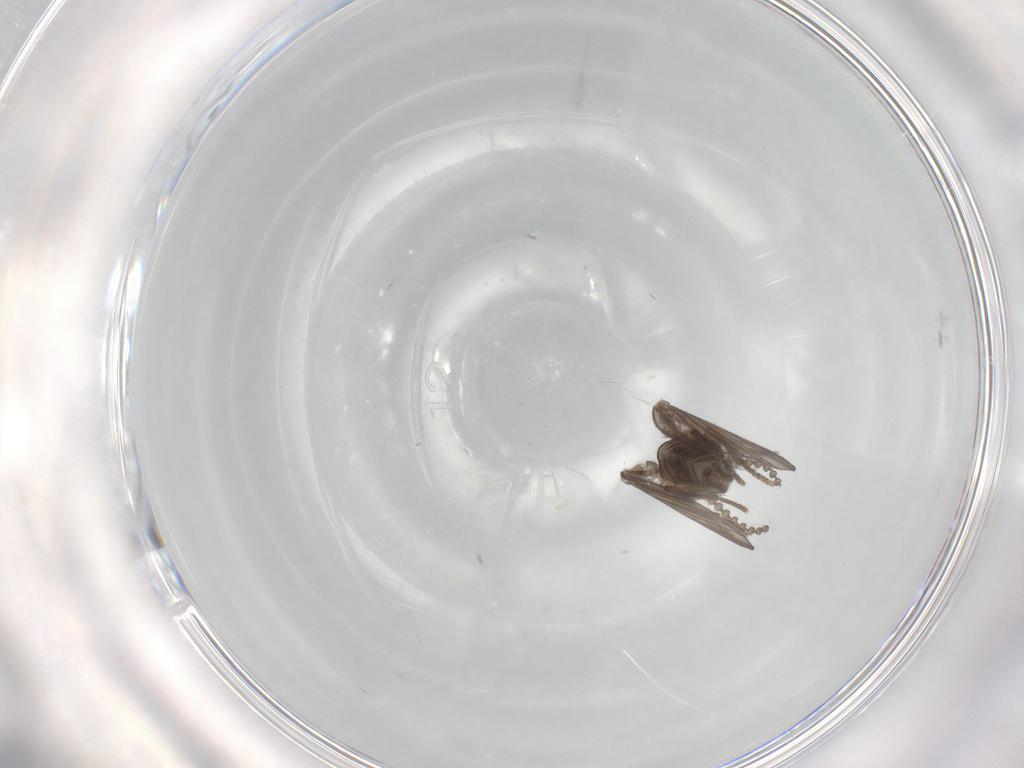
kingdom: Animalia
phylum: Arthropoda
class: Insecta
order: Diptera
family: Psychodidae
